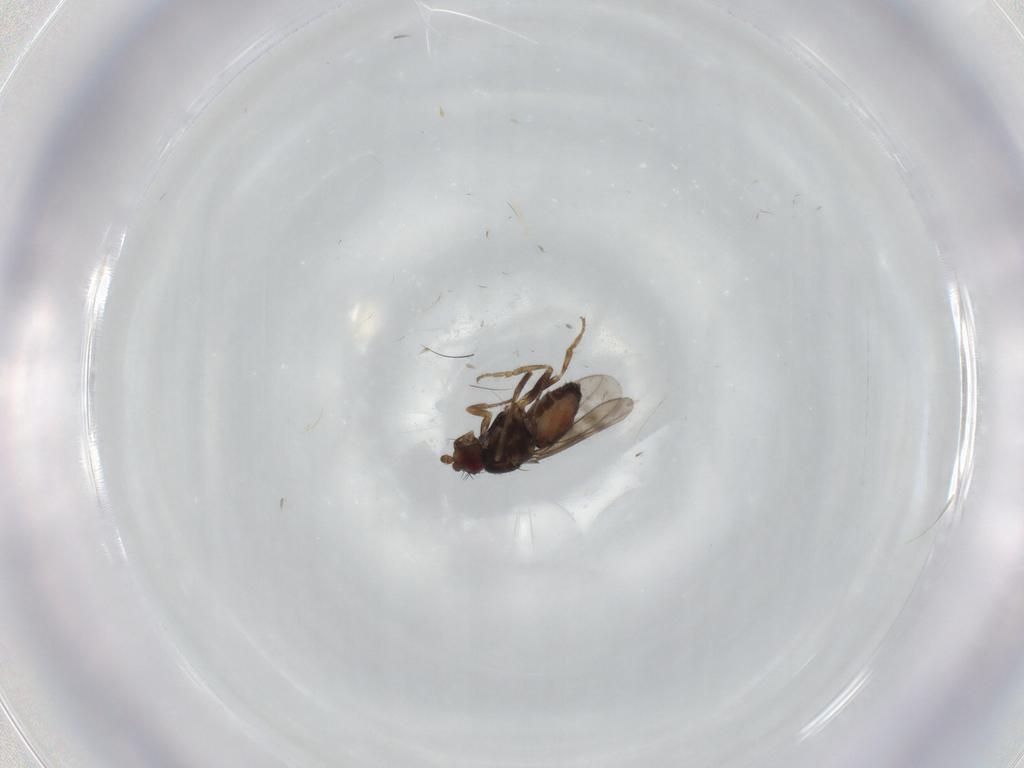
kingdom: Animalia
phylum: Arthropoda
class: Insecta
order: Diptera
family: Sphaeroceridae
